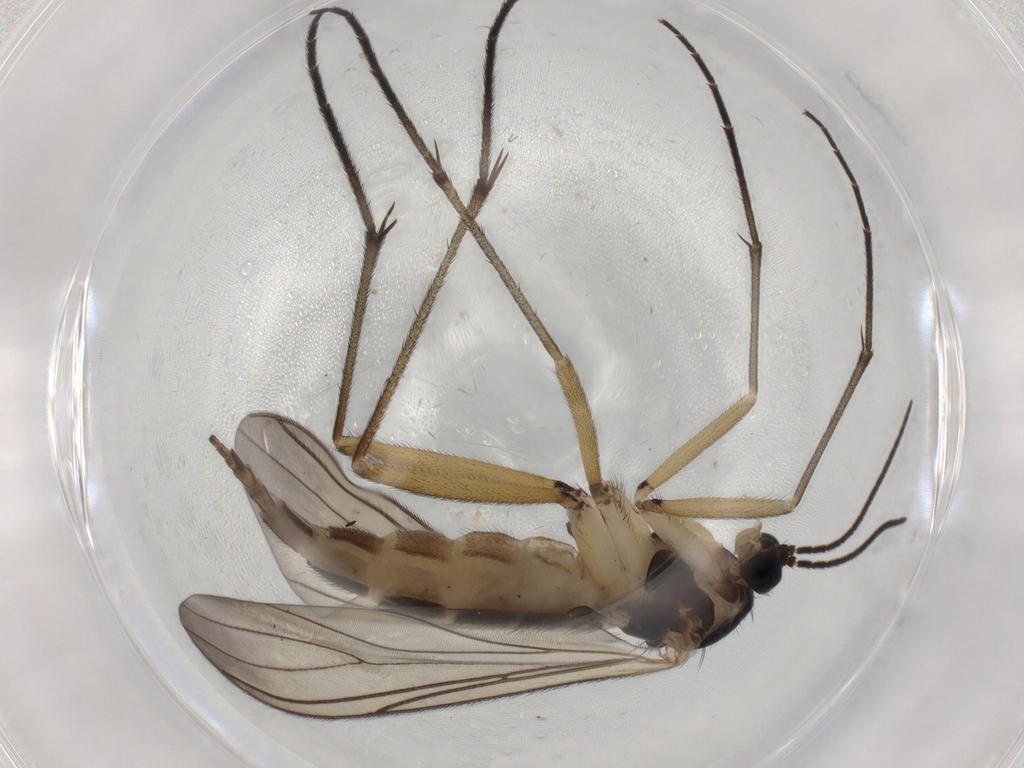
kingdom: Animalia
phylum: Arthropoda
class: Insecta
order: Diptera
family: Sciaridae
